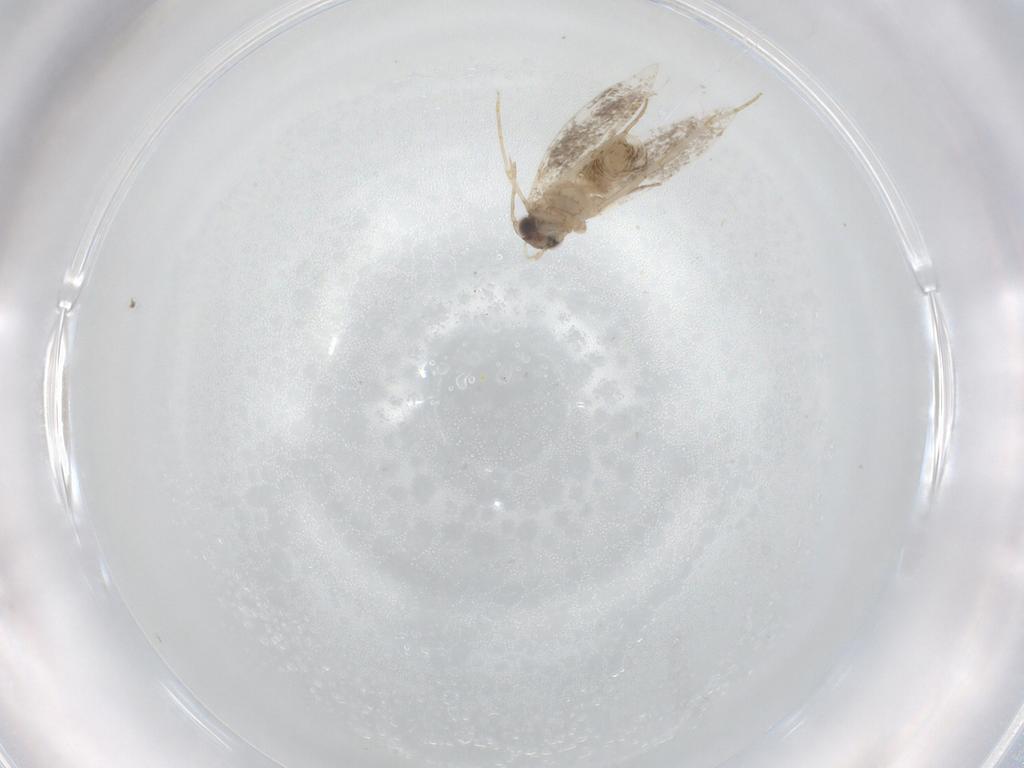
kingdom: Animalia
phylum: Arthropoda
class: Insecta
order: Lepidoptera
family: Tineidae
